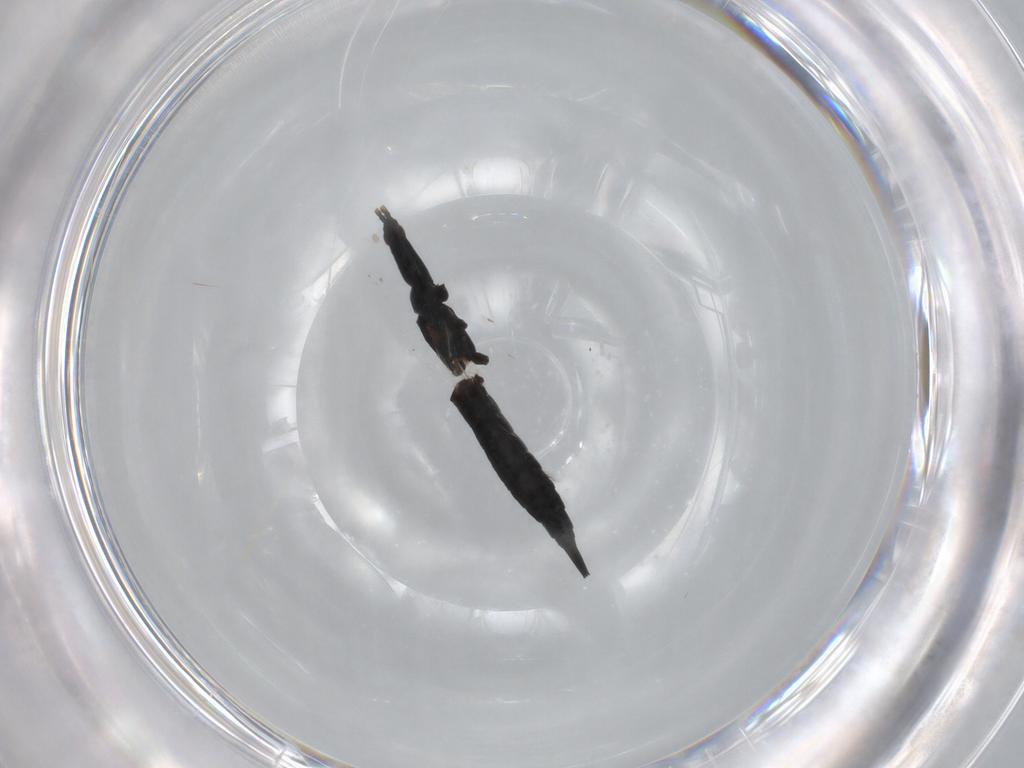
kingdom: Animalia
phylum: Arthropoda
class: Insecta
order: Thysanoptera
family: Phlaeothripidae
